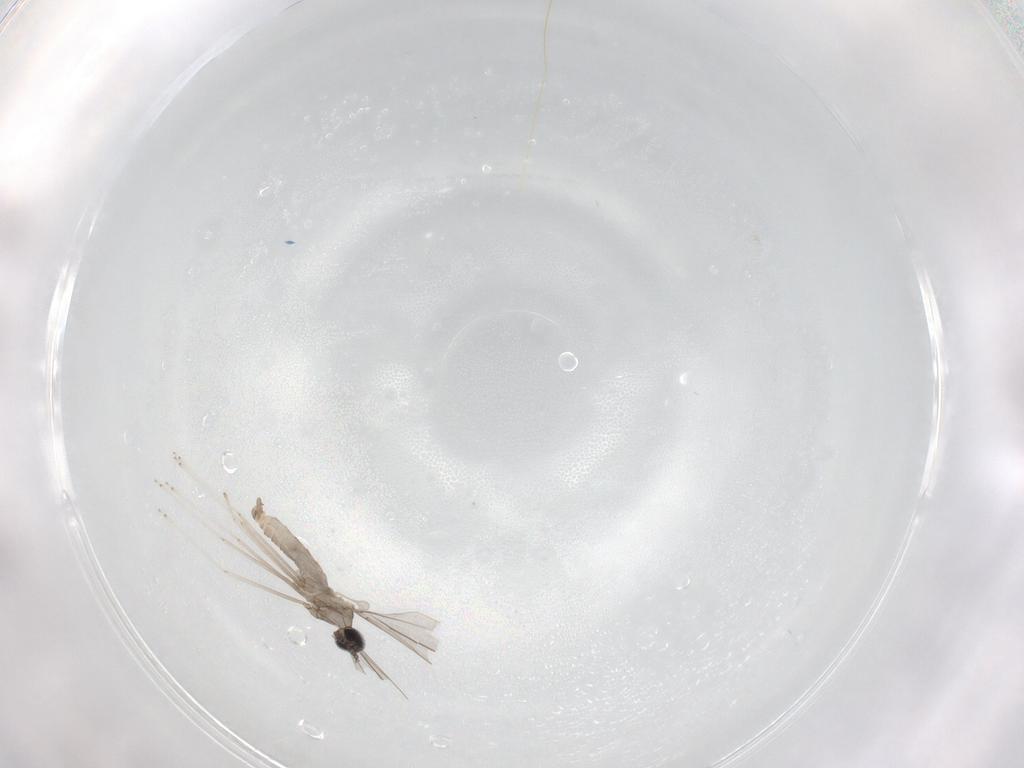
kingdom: Animalia
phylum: Arthropoda
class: Insecta
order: Diptera
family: Cecidomyiidae
